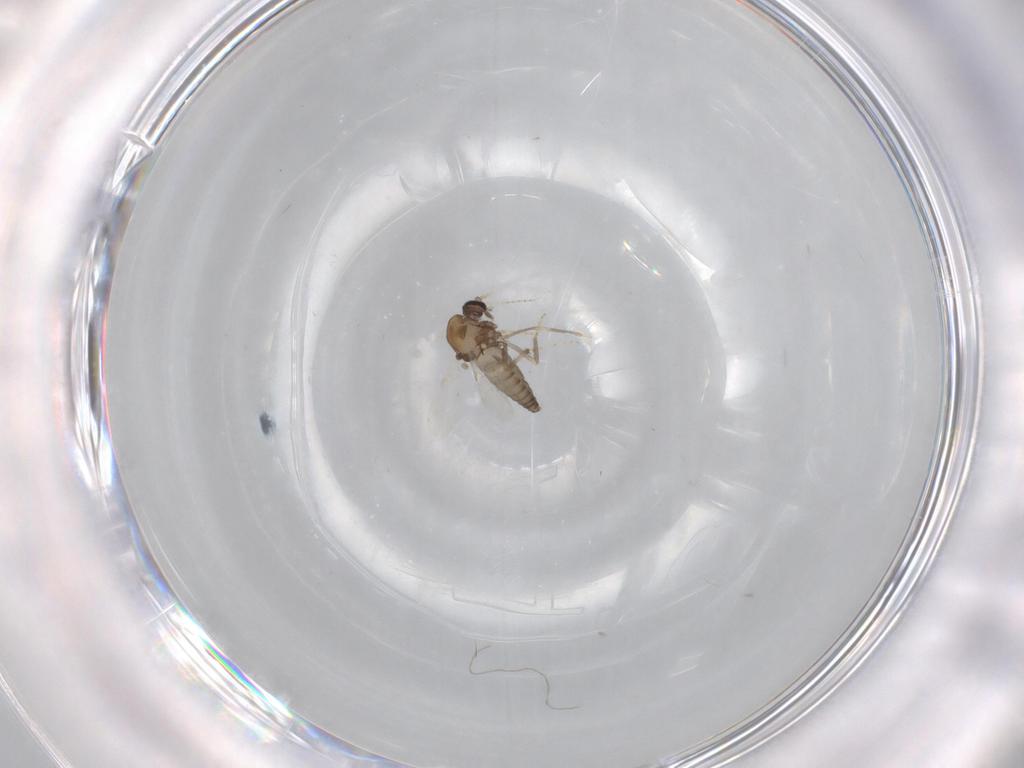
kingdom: Animalia
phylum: Arthropoda
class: Insecta
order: Diptera
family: Ceratopogonidae
